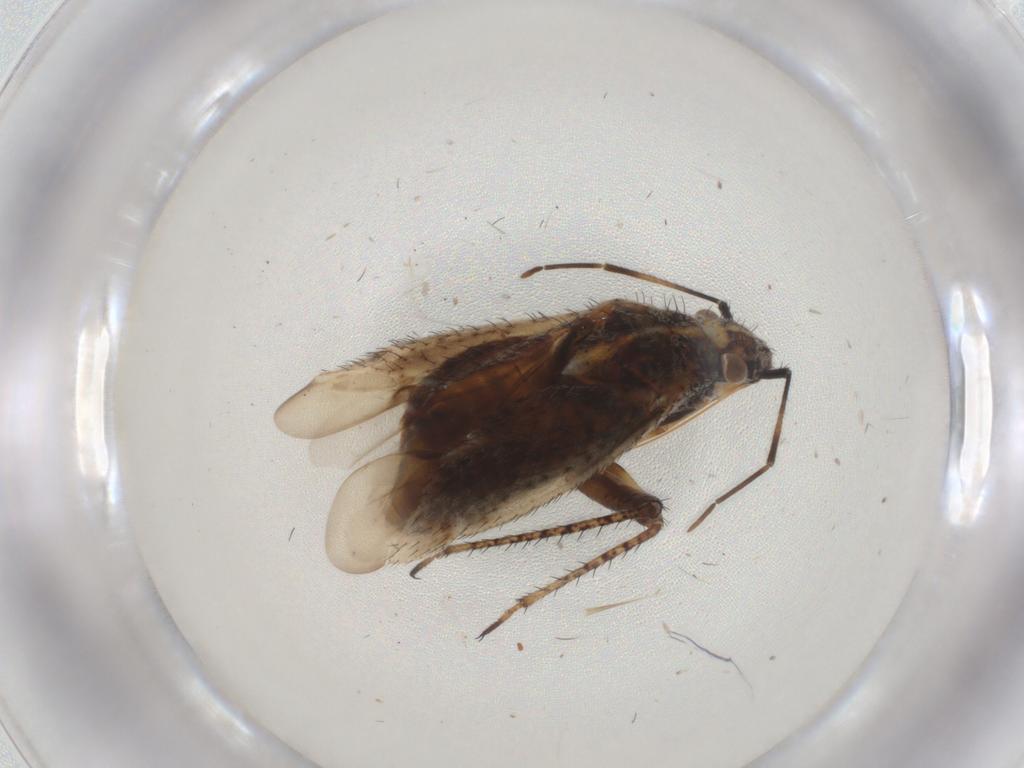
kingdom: Animalia
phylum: Arthropoda
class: Insecta
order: Hemiptera
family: Miridae
